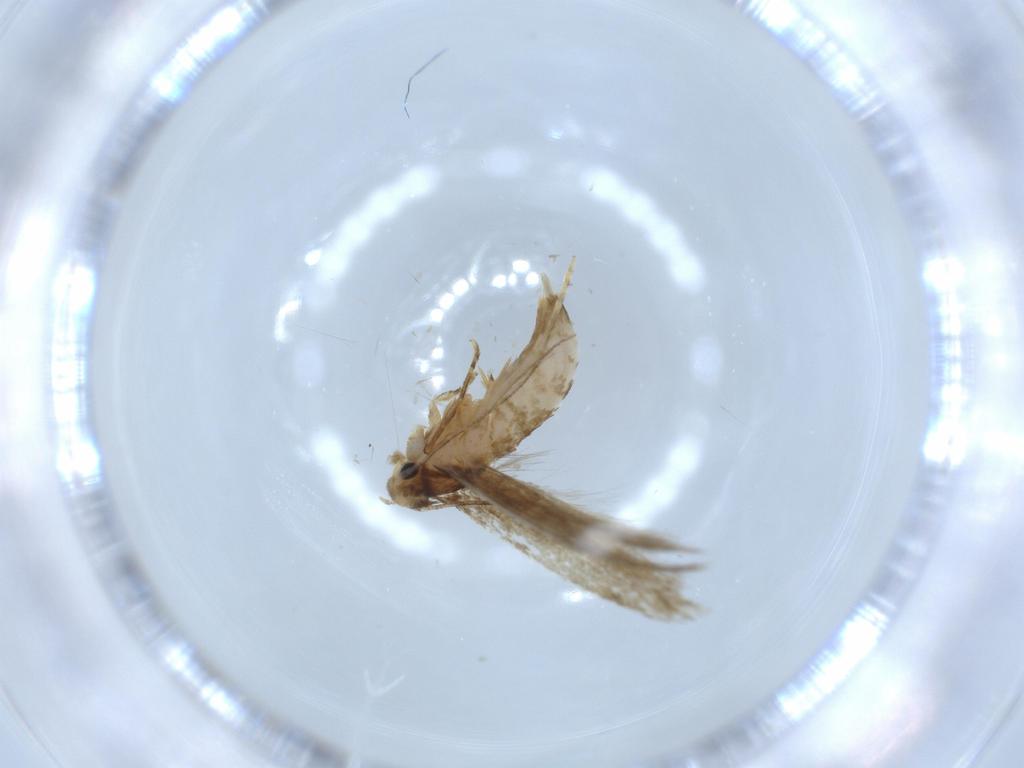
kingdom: Animalia
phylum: Arthropoda
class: Insecta
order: Lepidoptera
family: Tineidae
